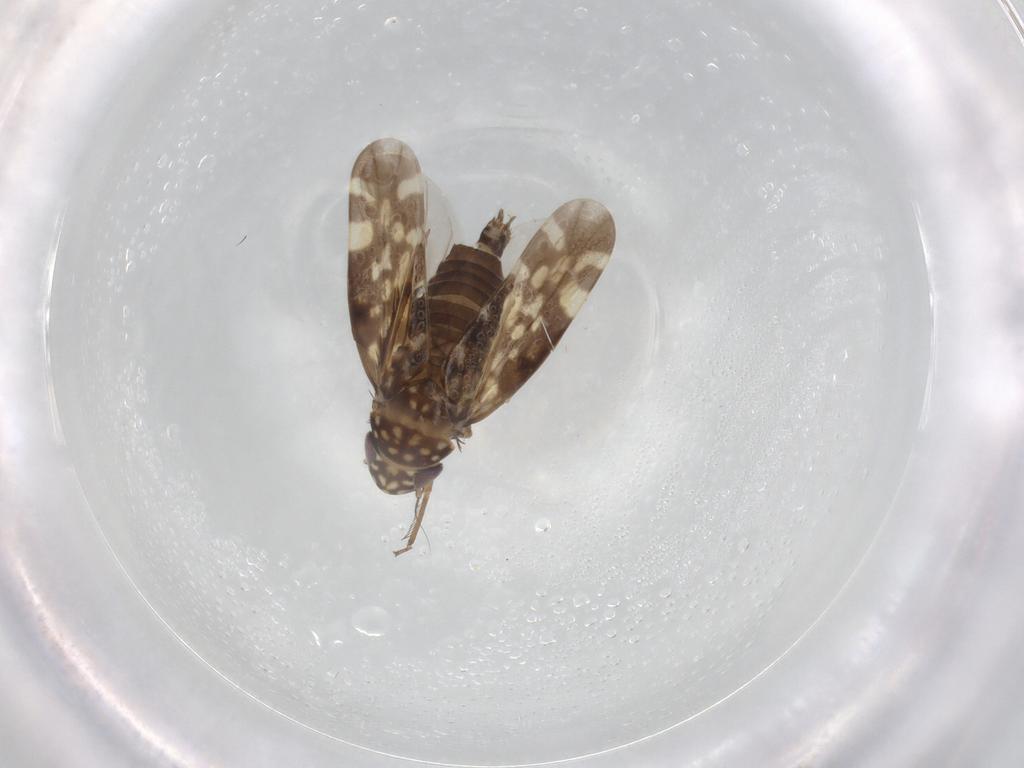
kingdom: Animalia
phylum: Arthropoda
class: Insecta
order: Hemiptera
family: Cicadellidae
